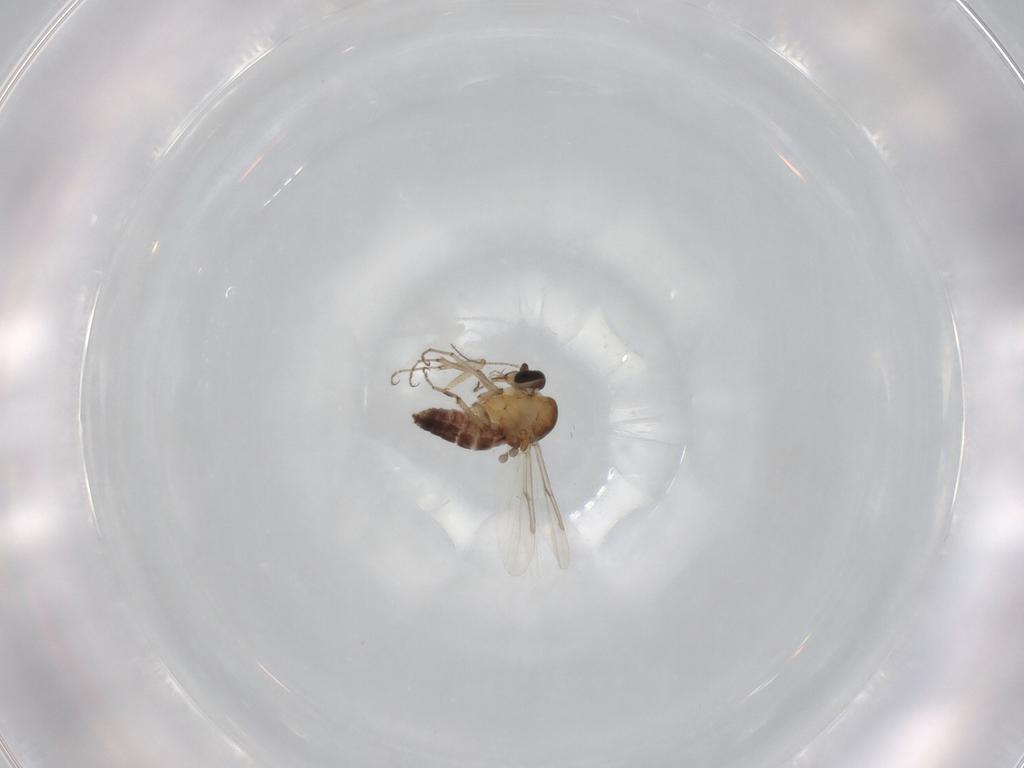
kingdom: Animalia
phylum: Arthropoda
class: Insecta
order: Diptera
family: Ceratopogonidae
